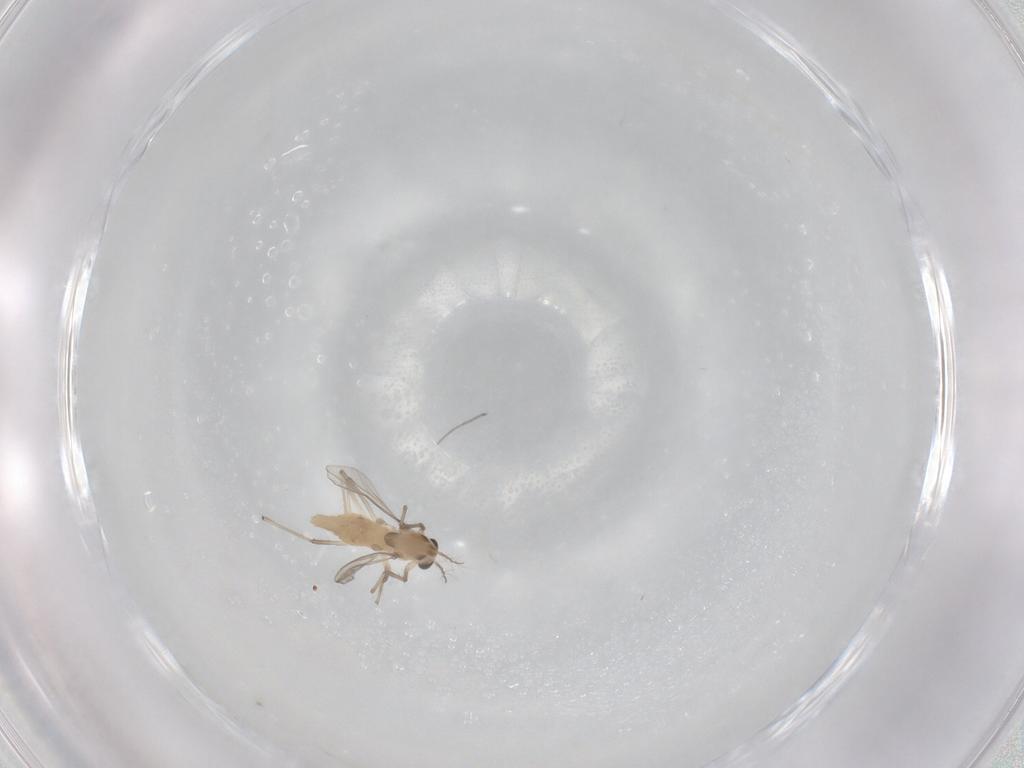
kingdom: Animalia
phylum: Arthropoda
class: Insecta
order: Diptera
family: Chironomidae
